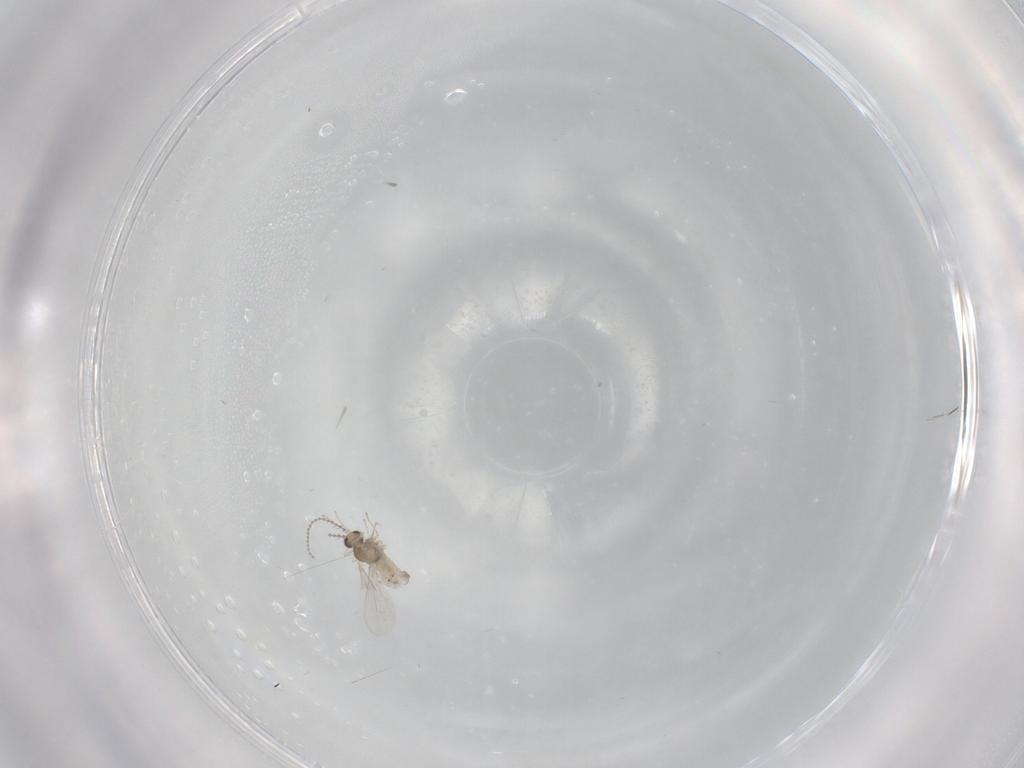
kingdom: Animalia
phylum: Arthropoda
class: Insecta
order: Diptera
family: Cecidomyiidae
